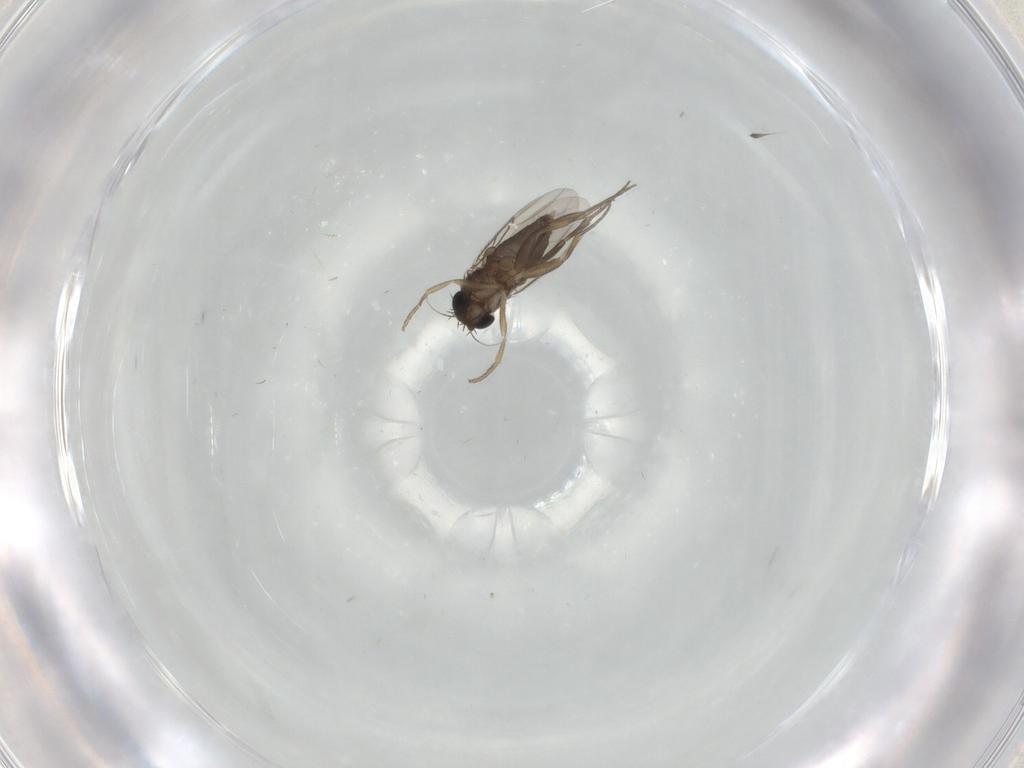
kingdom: Animalia
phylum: Arthropoda
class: Insecta
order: Diptera
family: Phoridae
